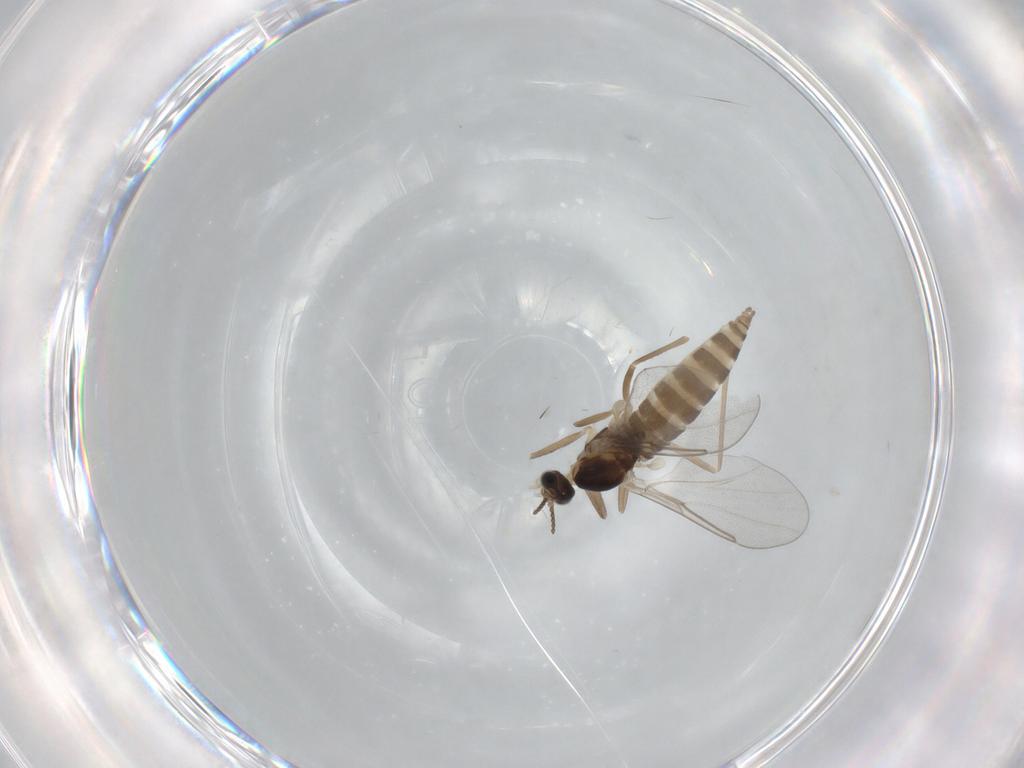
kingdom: Animalia
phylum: Arthropoda
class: Insecta
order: Diptera
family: Cecidomyiidae
